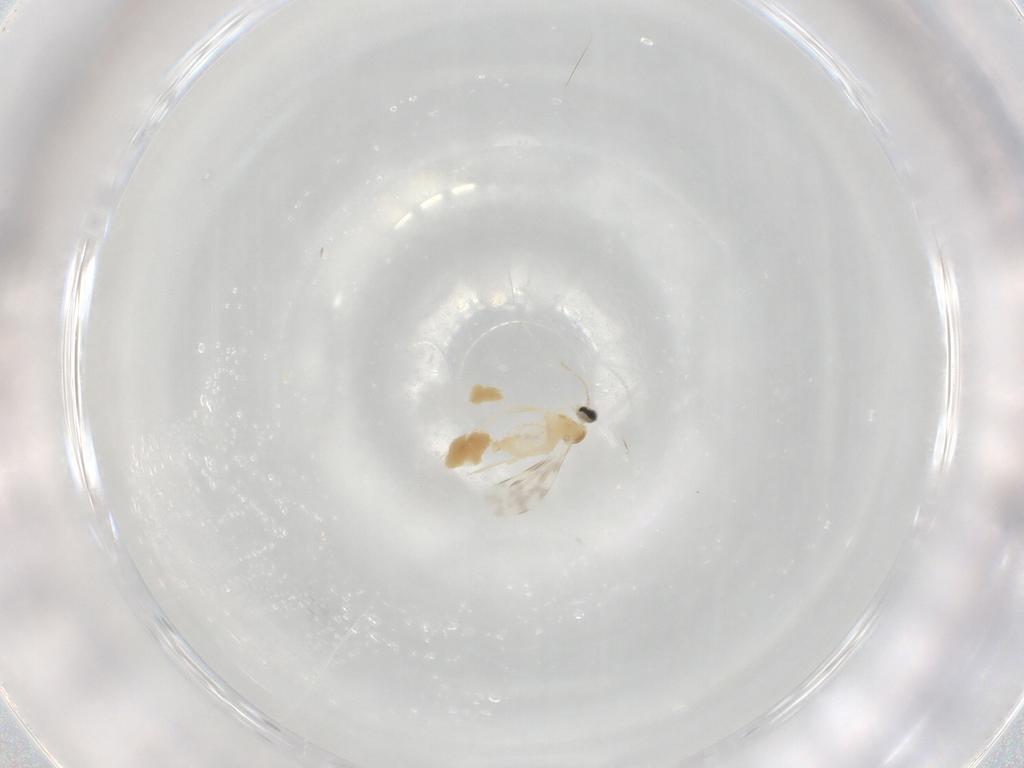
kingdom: Animalia
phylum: Arthropoda
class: Insecta
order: Diptera
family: Cecidomyiidae
